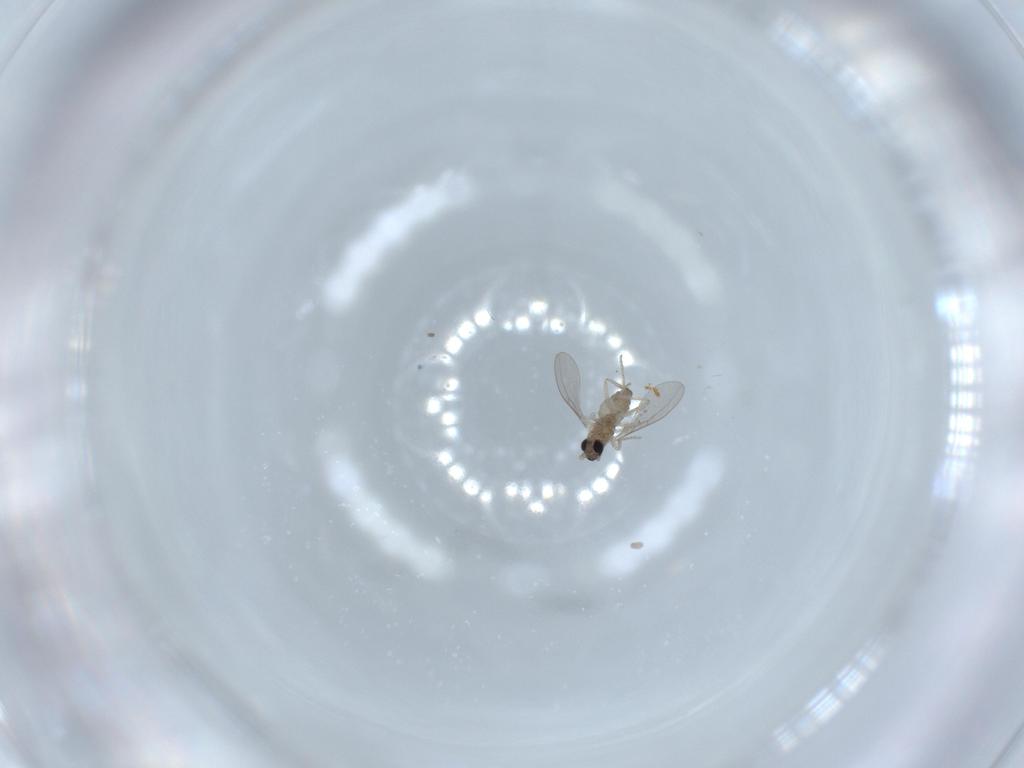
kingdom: Animalia
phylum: Arthropoda
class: Insecta
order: Diptera
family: Cecidomyiidae
